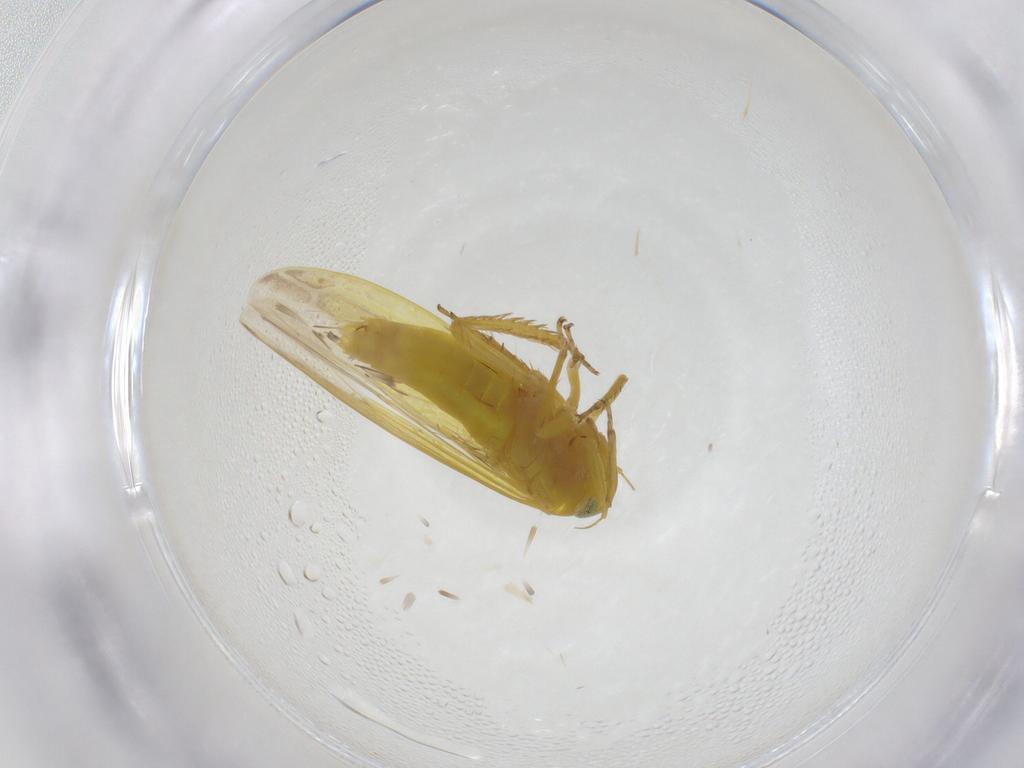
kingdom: Animalia
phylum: Arthropoda
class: Insecta
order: Hemiptera
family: Cicadellidae
